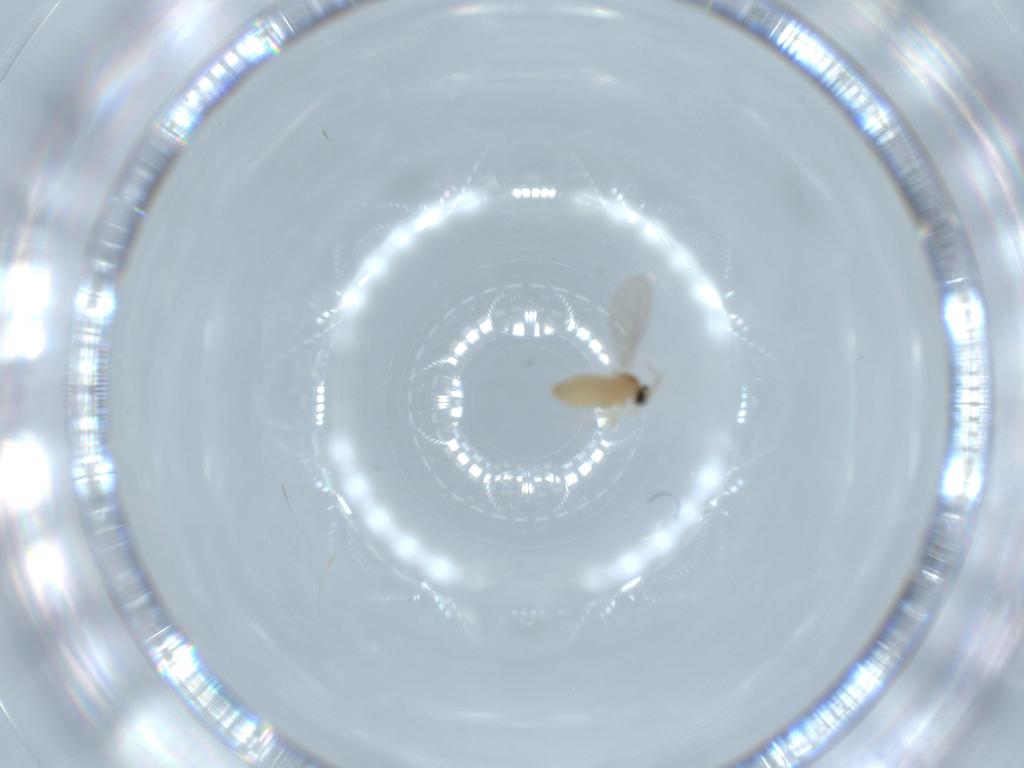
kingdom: Animalia
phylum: Arthropoda
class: Insecta
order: Diptera
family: Cecidomyiidae
